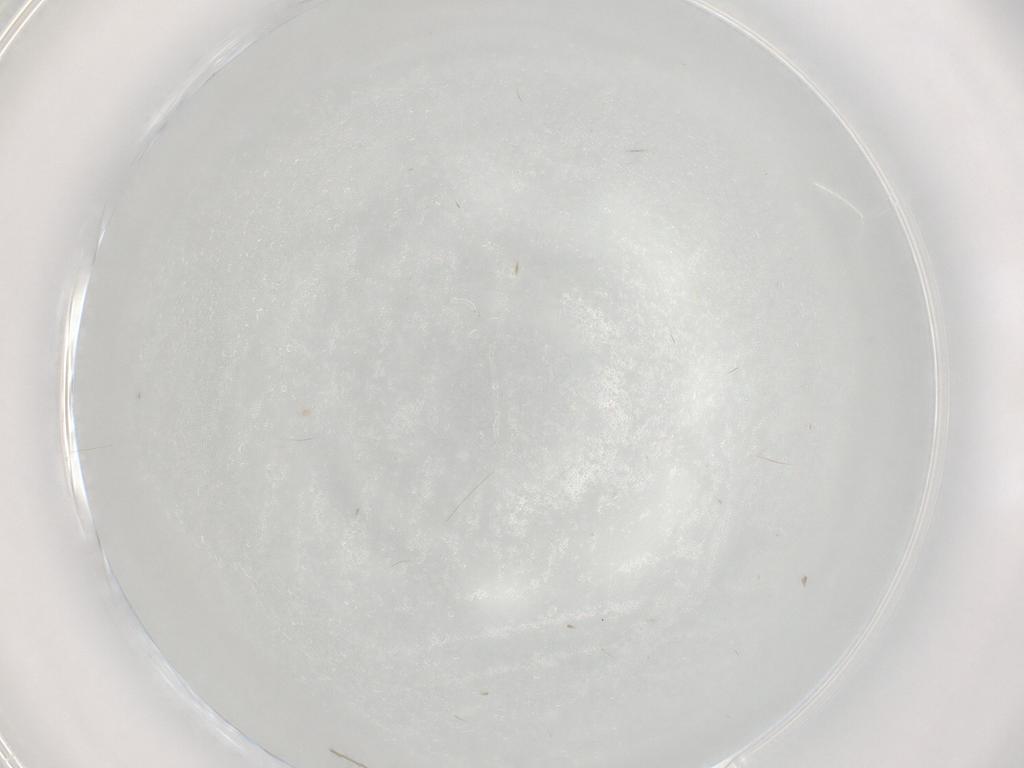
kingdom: Animalia
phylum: Arthropoda
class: Insecta
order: Hemiptera
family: Aleyrodidae
